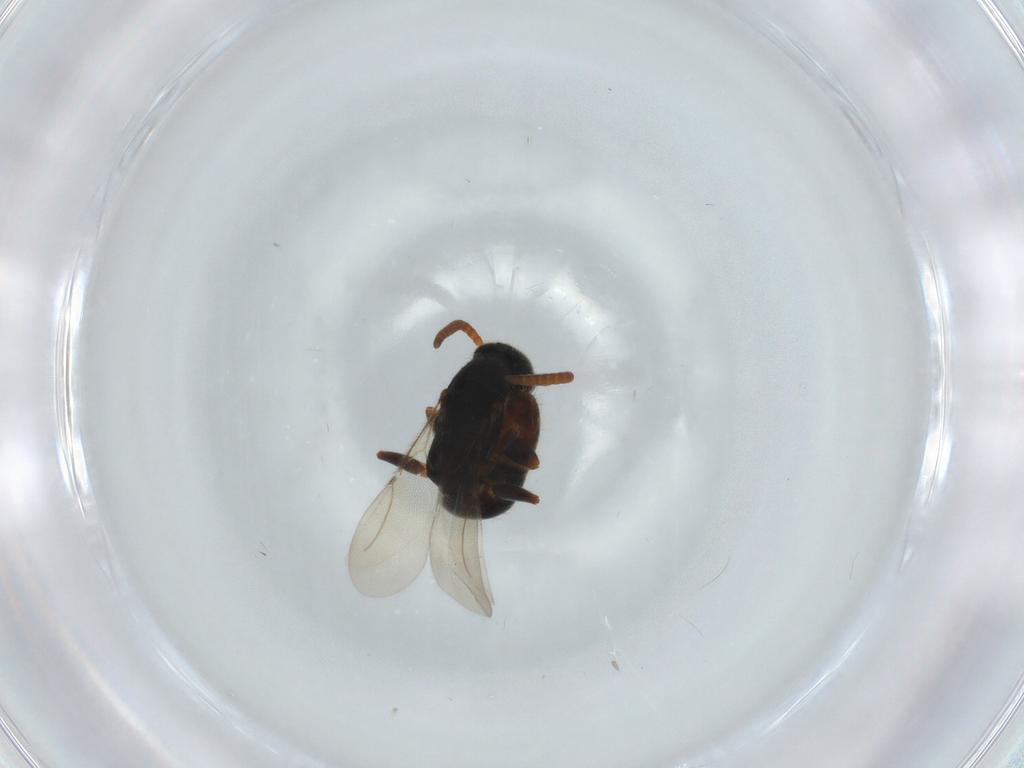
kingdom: Animalia
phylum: Arthropoda
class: Insecta
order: Hymenoptera
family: Bethylidae
